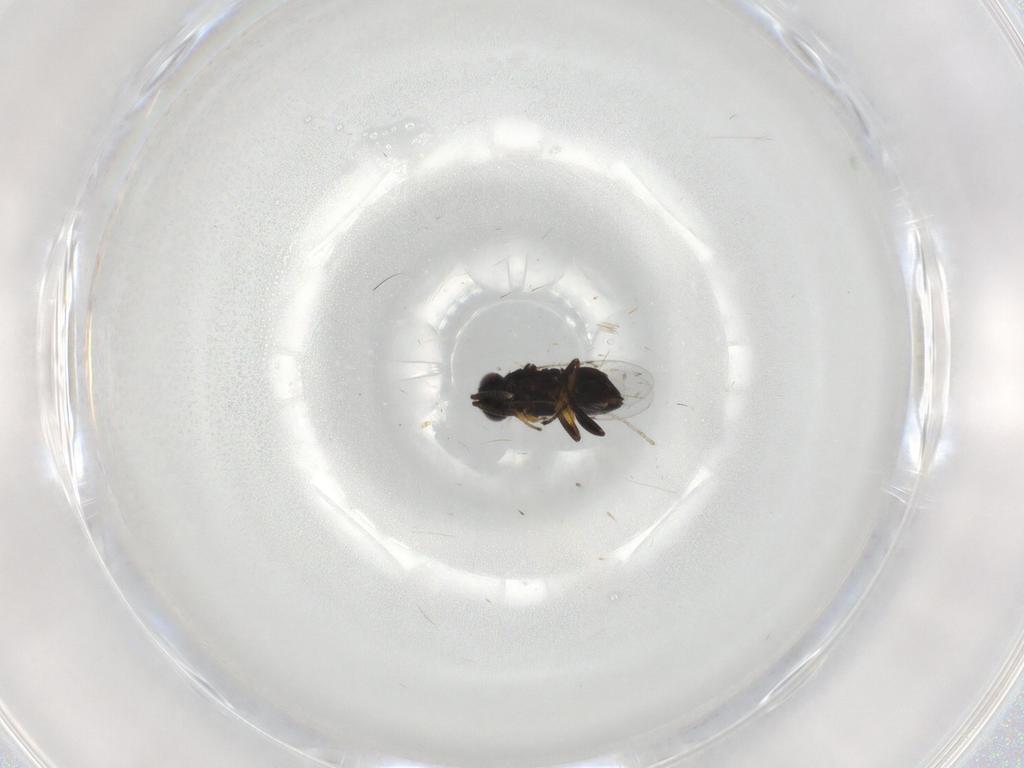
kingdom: Animalia
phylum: Arthropoda
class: Insecta
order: Diptera
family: Cecidomyiidae
